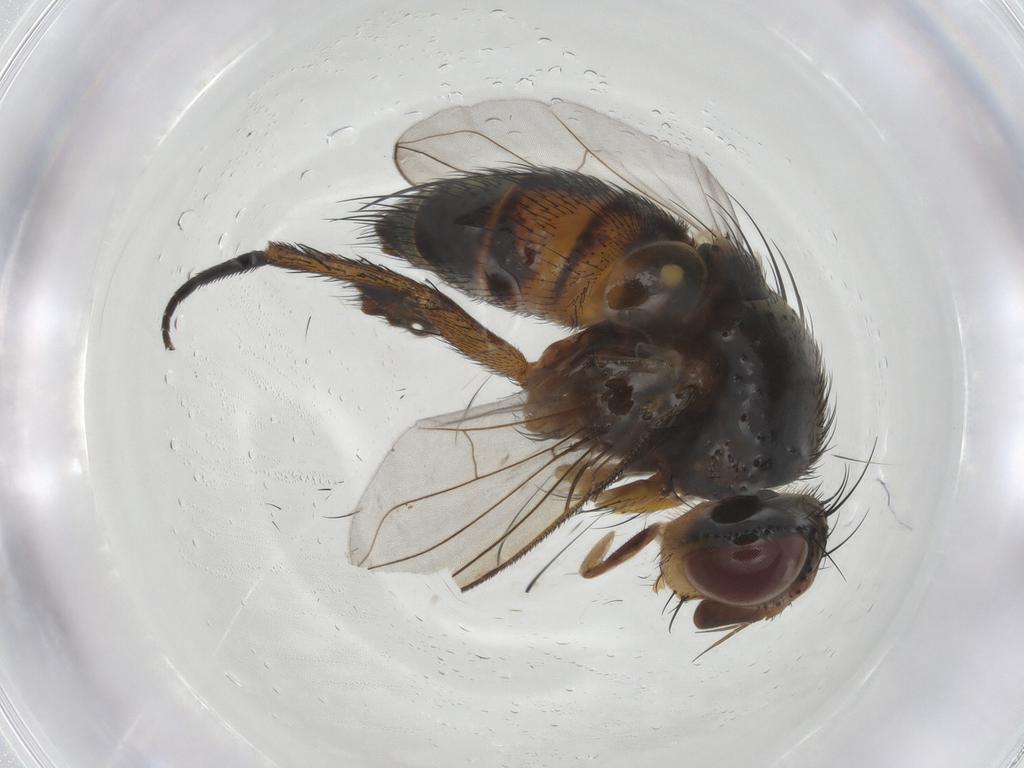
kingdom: Animalia
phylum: Arthropoda
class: Insecta
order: Diptera
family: Tachinidae
